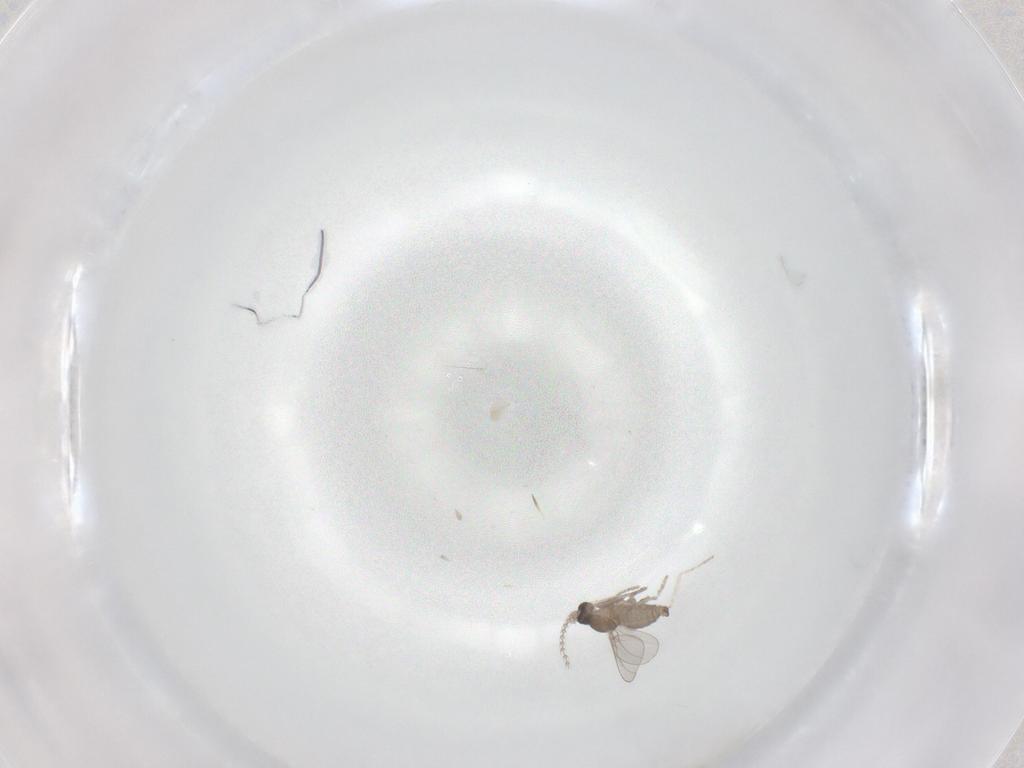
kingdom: Animalia
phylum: Arthropoda
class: Insecta
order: Diptera
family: Cecidomyiidae
